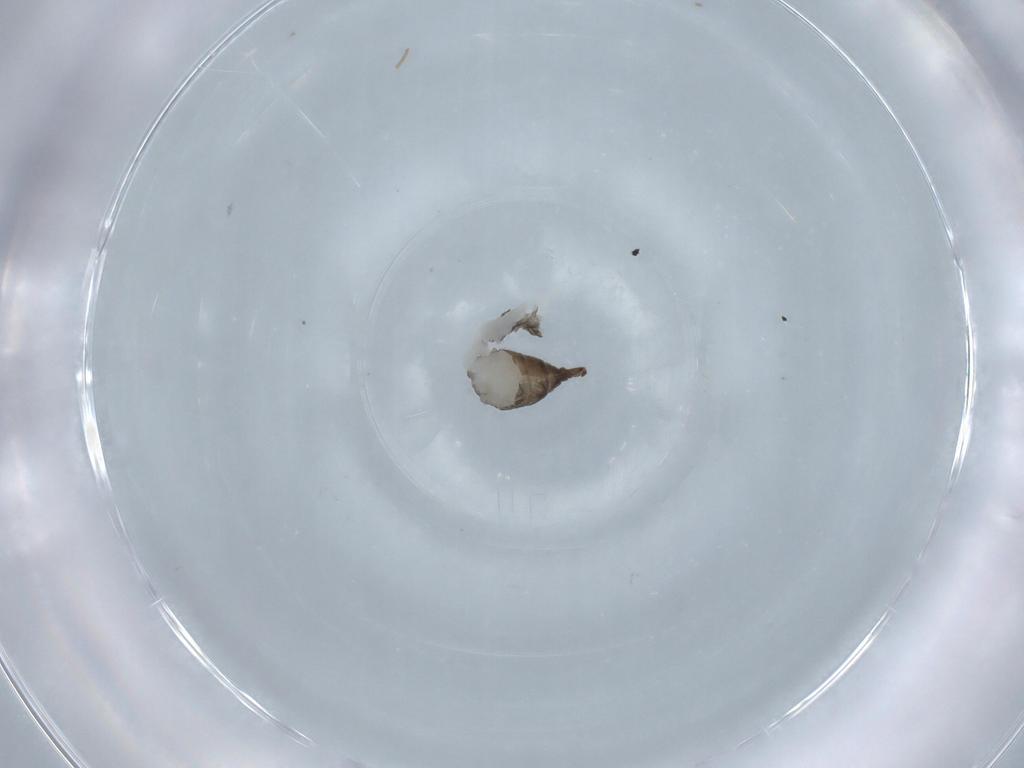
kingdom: Animalia
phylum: Arthropoda
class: Insecta
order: Diptera
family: Sciaridae
